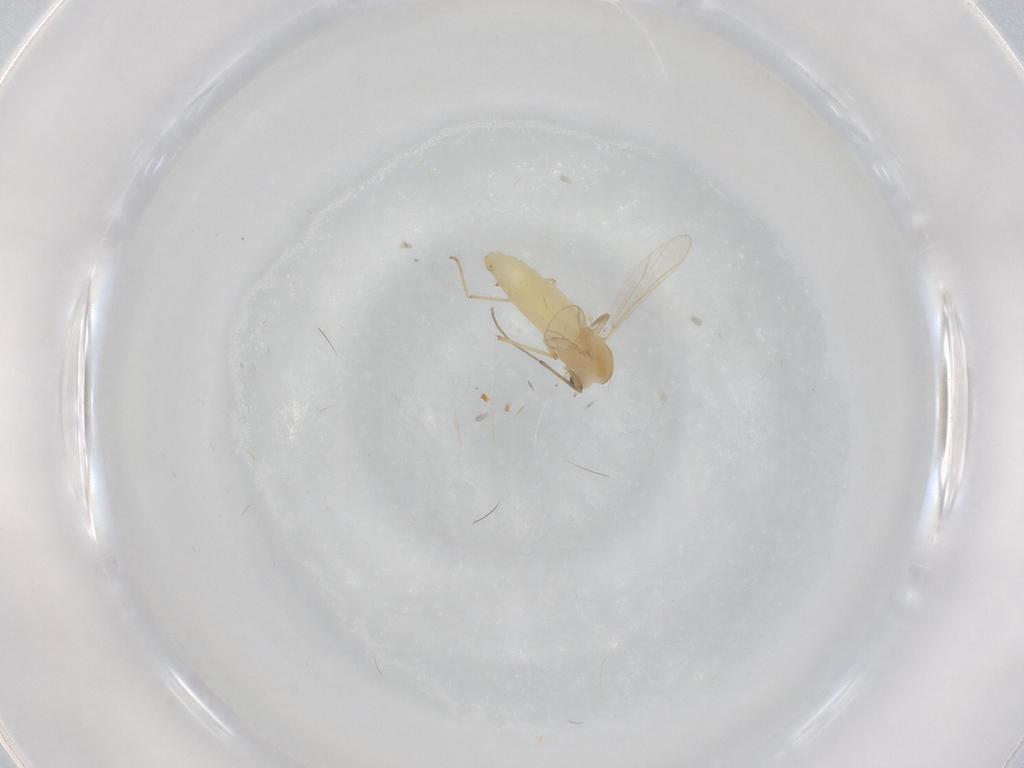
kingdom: Animalia
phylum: Arthropoda
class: Insecta
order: Diptera
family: Chironomidae
